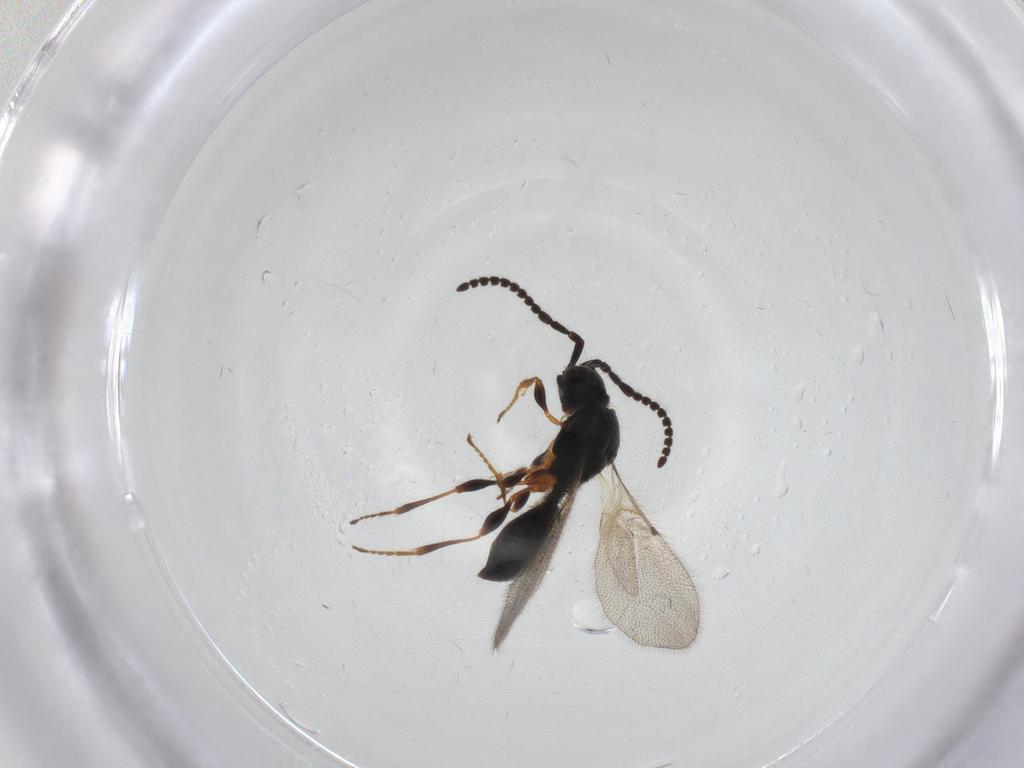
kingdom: Animalia
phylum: Arthropoda
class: Insecta
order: Hymenoptera
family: Diapriidae
